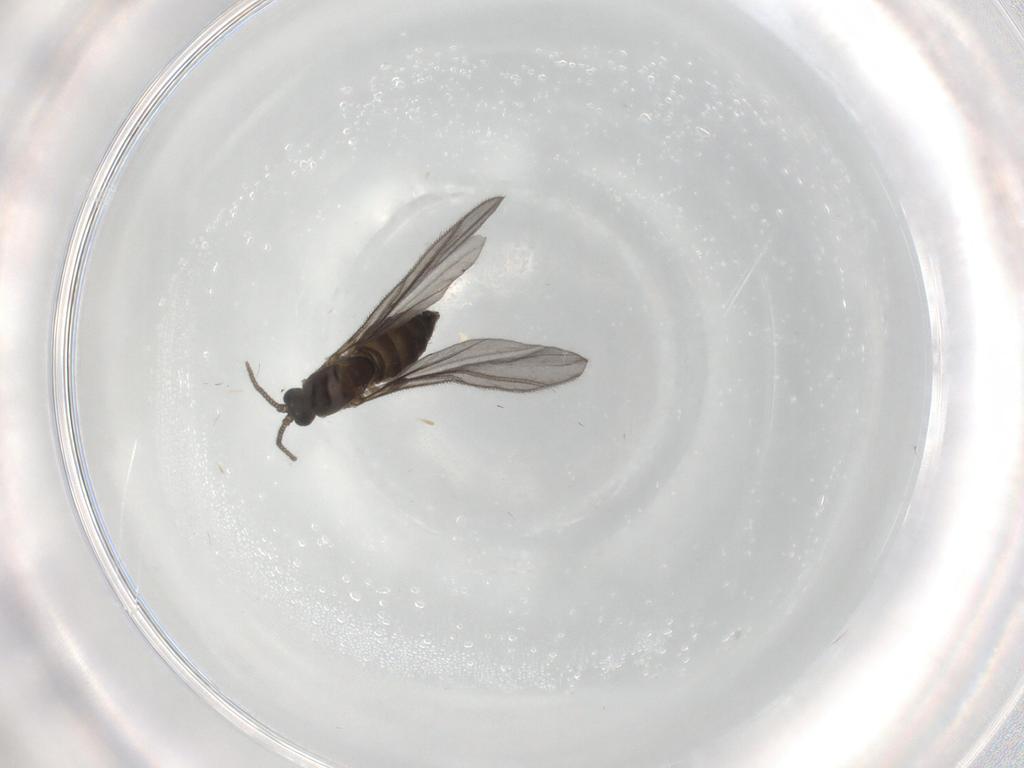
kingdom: Animalia
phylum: Arthropoda
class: Insecta
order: Diptera
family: Sciaridae
